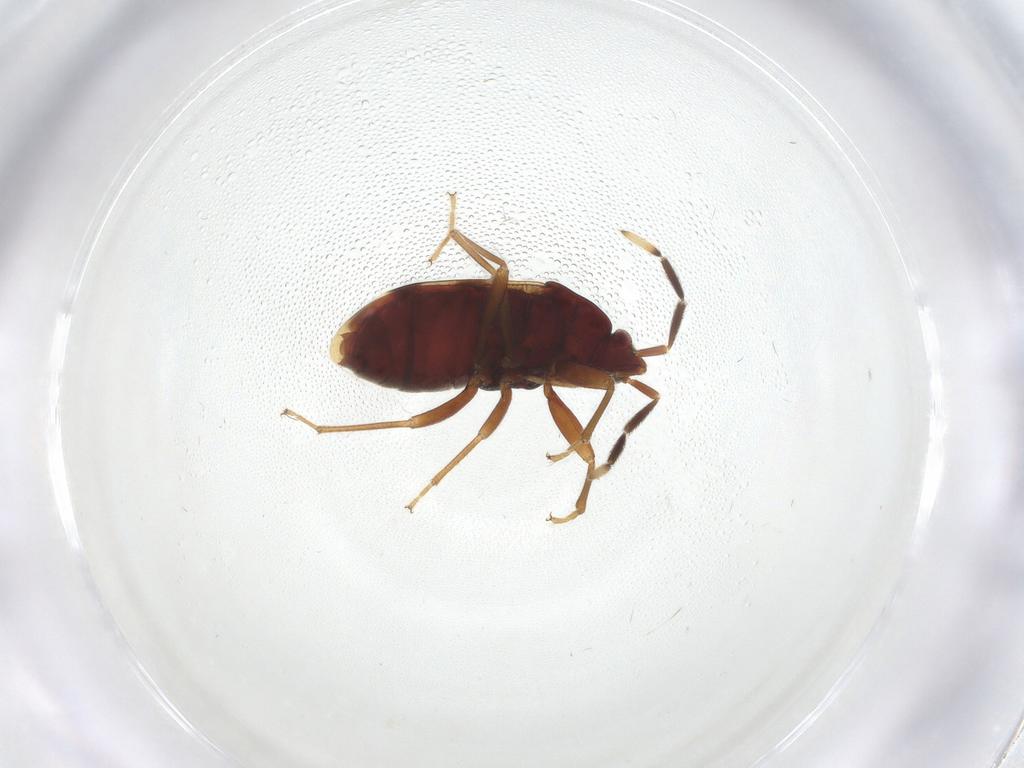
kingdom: Animalia
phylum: Arthropoda
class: Insecta
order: Hemiptera
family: Rhyparochromidae
